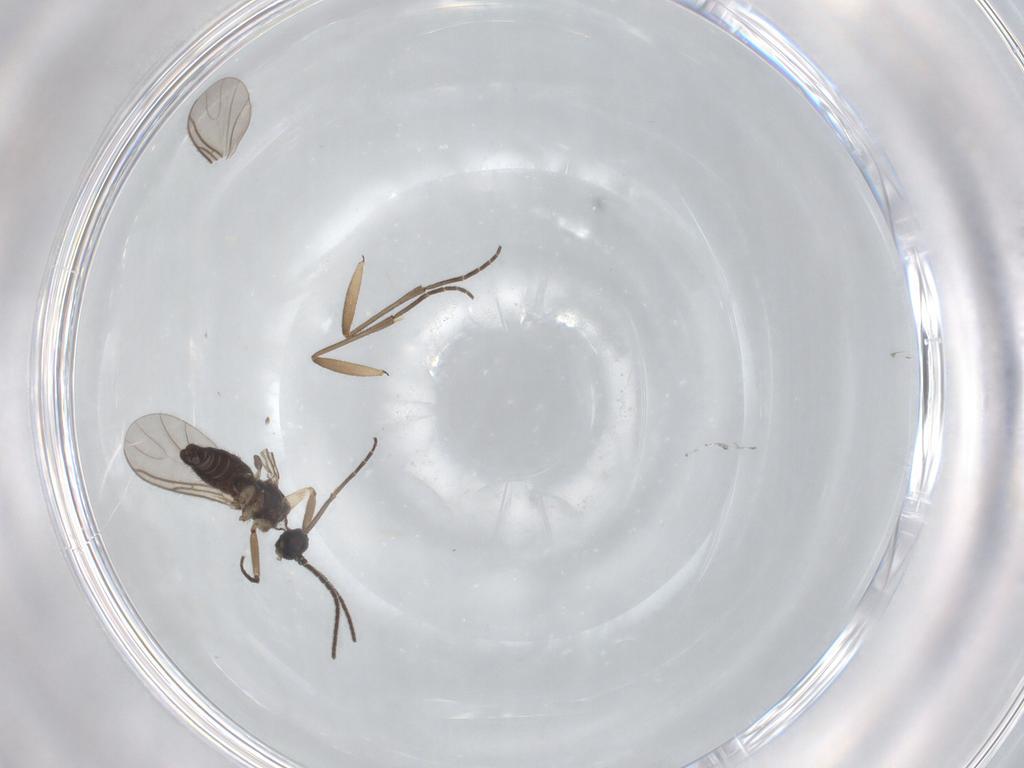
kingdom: Animalia
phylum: Arthropoda
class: Insecta
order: Diptera
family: Sciaridae
